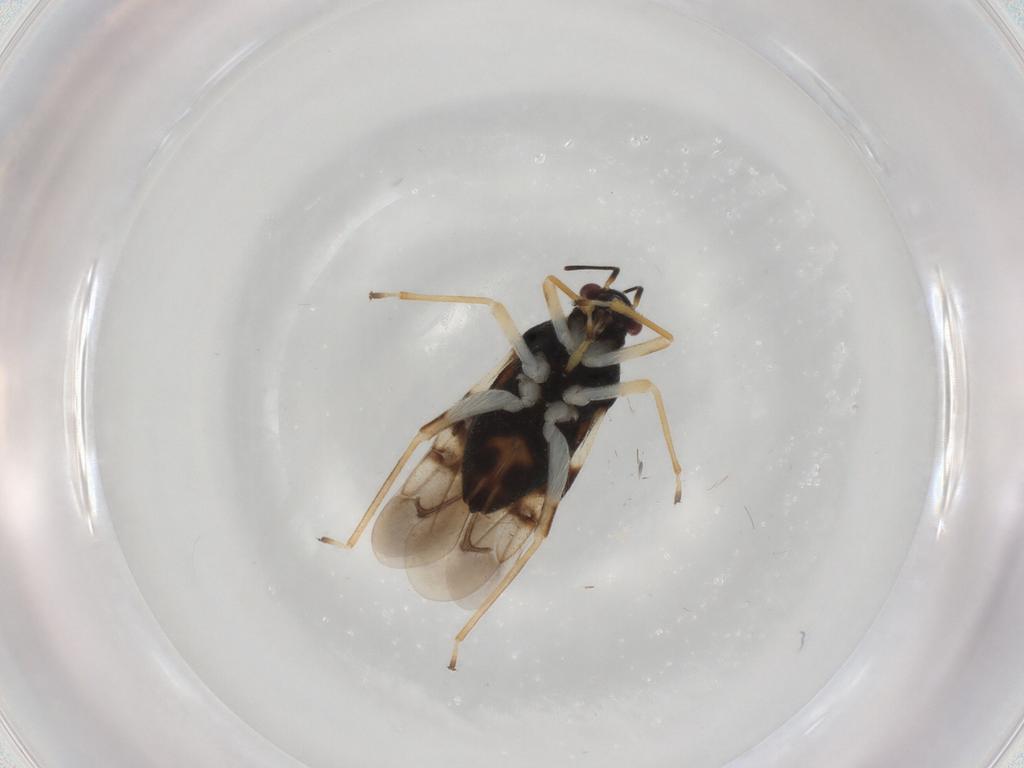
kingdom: Animalia
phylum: Arthropoda
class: Insecta
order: Hemiptera
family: Miridae
